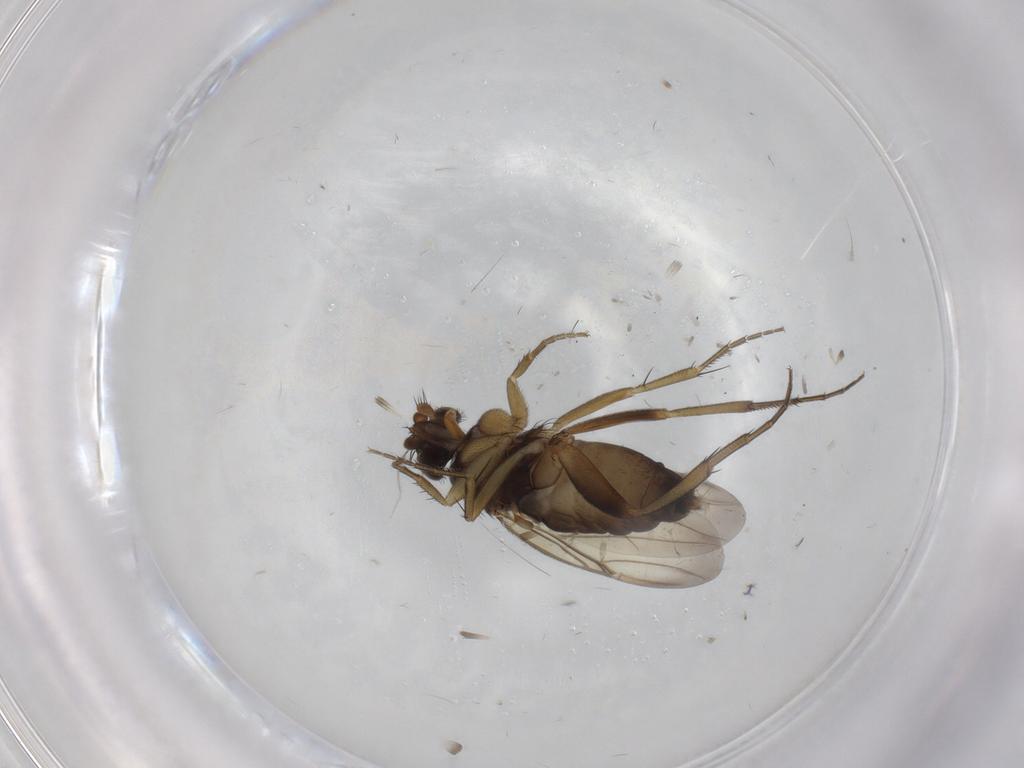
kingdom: Animalia
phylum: Arthropoda
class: Insecta
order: Diptera
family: Phoridae
